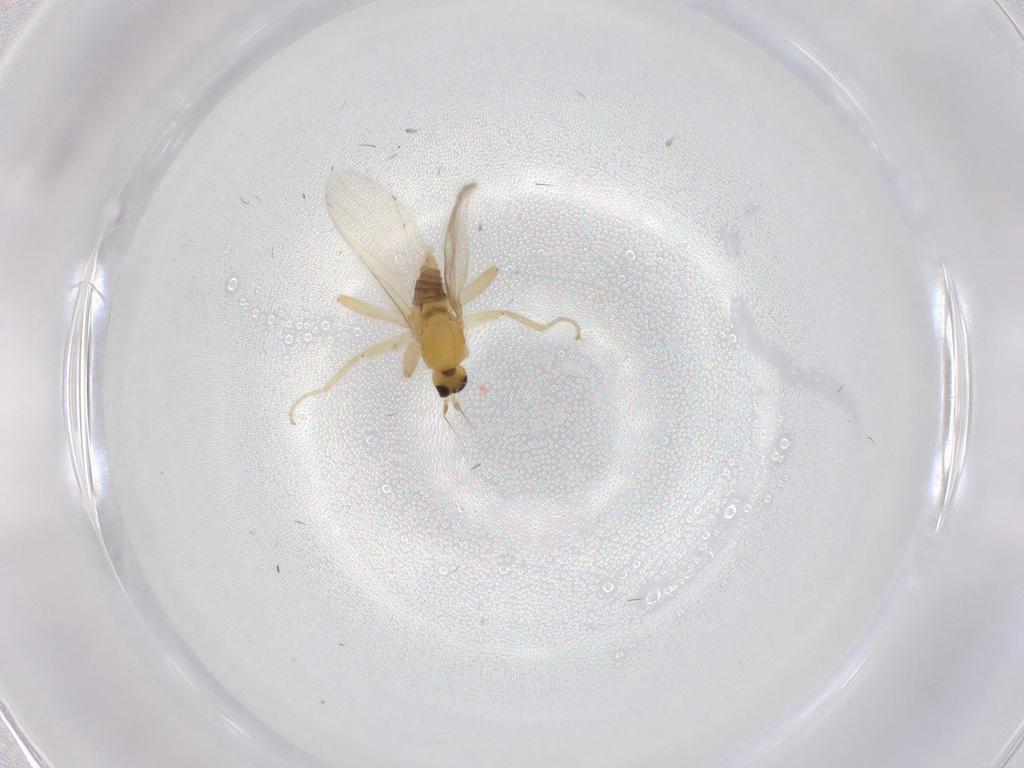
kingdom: Animalia
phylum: Arthropoda
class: Insecta
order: Diptera
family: Hybotidae
